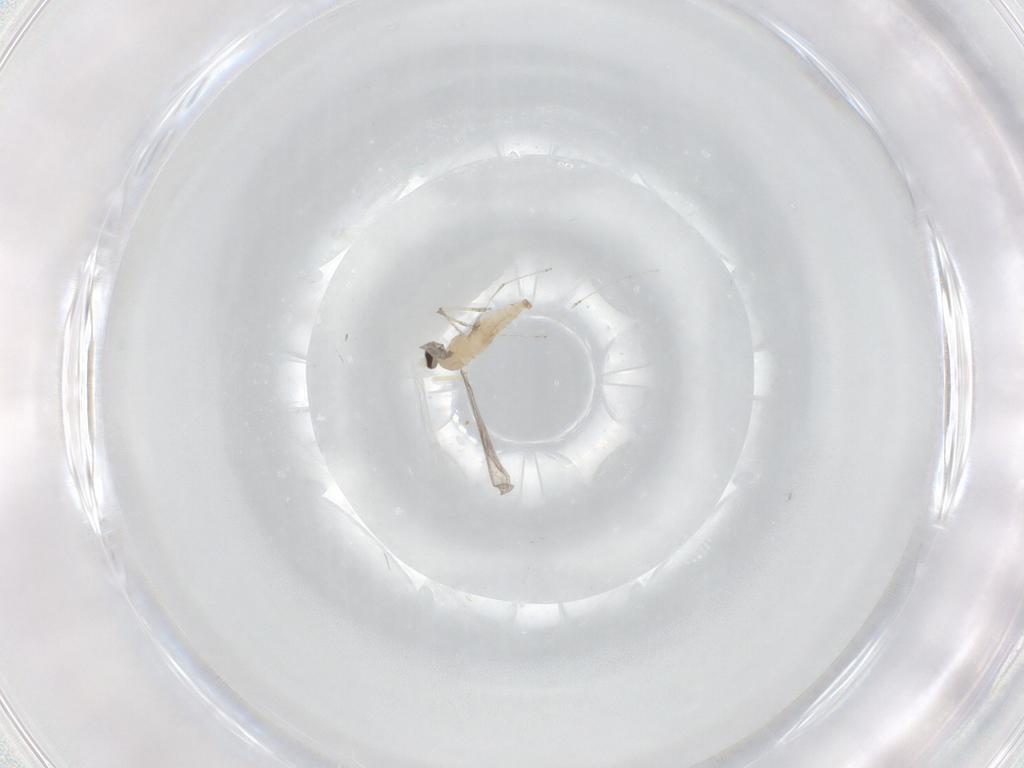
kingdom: Animalia
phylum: Arthropoda
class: Insecta
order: Diptera
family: Cecidomyiidae
